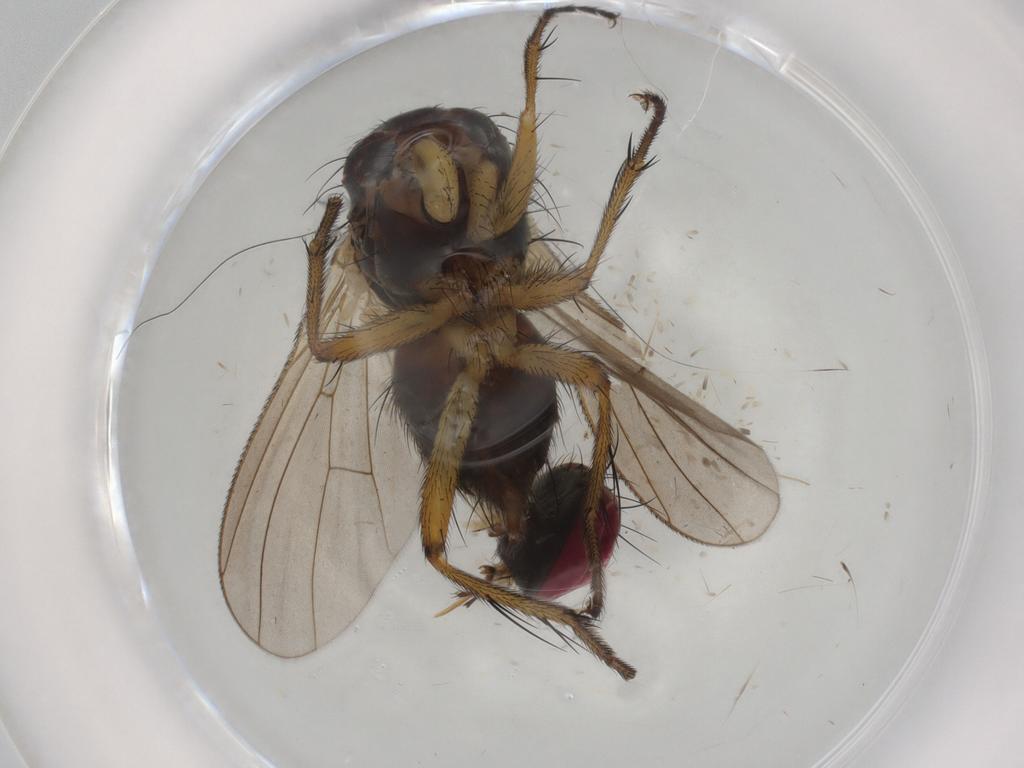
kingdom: Animalia
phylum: Arthropoda
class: Insecta
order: Diptera
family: Muscidae
